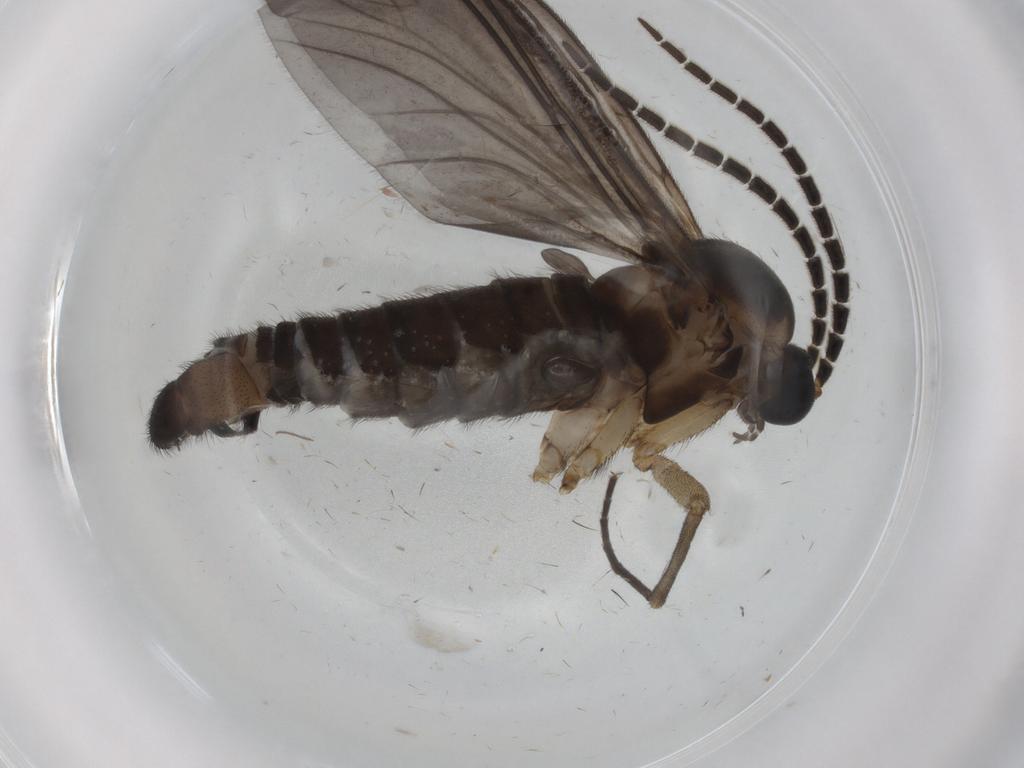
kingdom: Animalia
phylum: Arthropoda
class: Insecta
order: Diptera
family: Sciaridae
